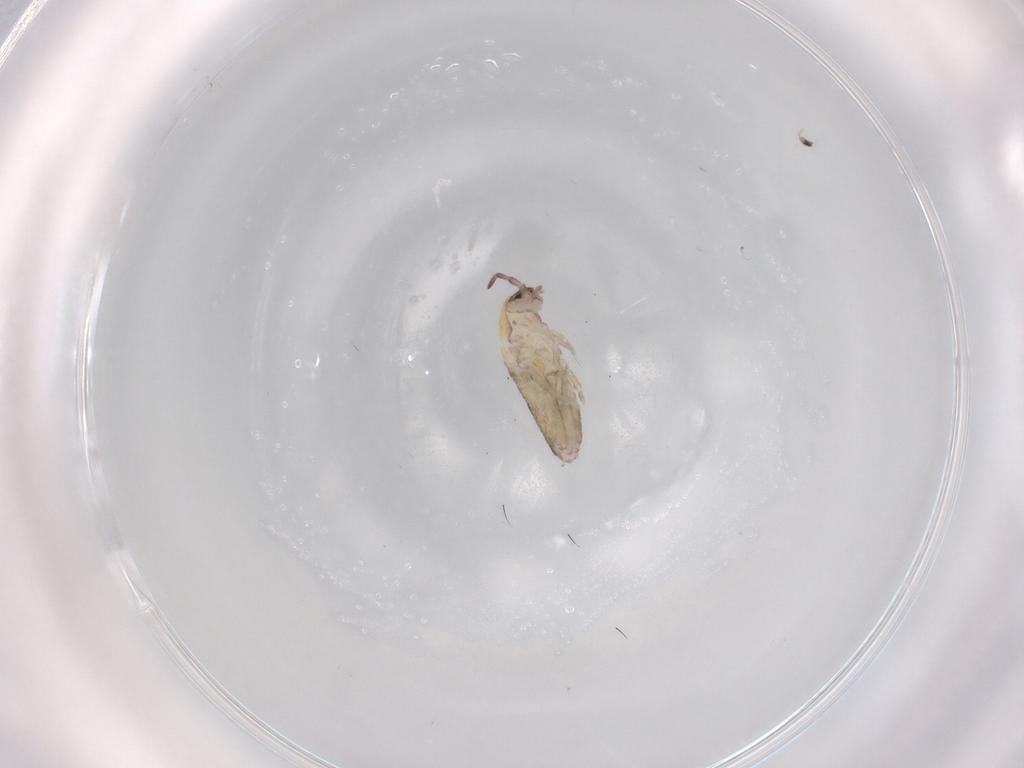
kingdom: Animalia
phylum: Arthropoda
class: Collembola
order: Entomobryomorpha
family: Entomobryidae
